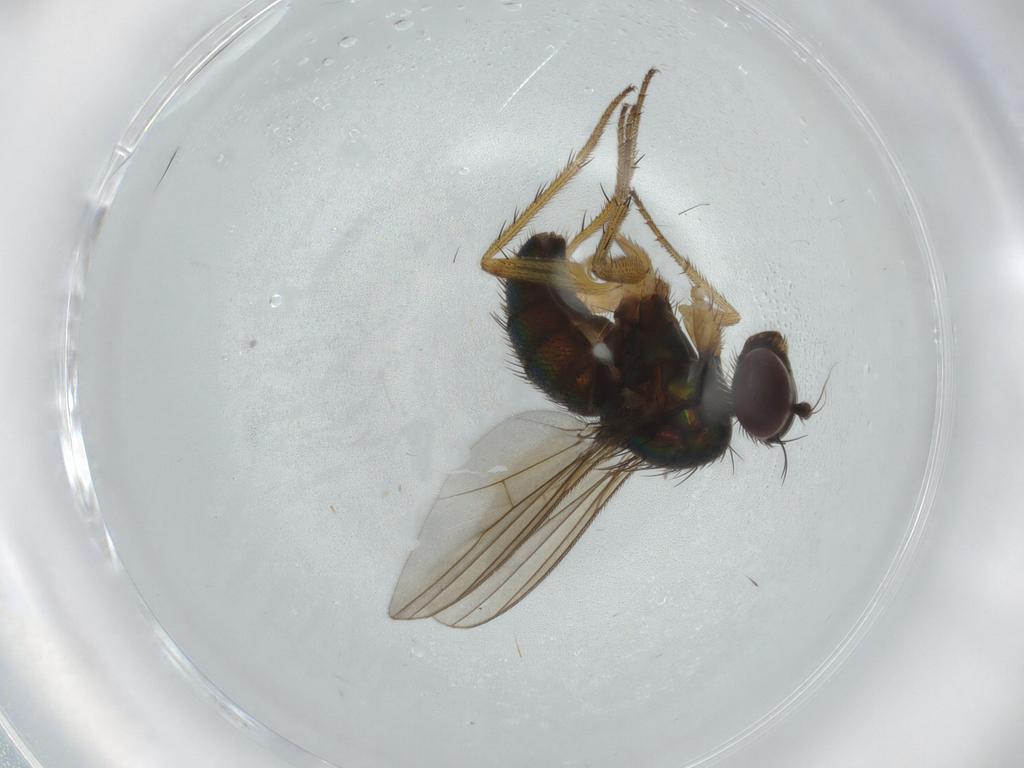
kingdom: Animalia
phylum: Arthropoda
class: Insecta
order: Diptera
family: Dolichopodidae
